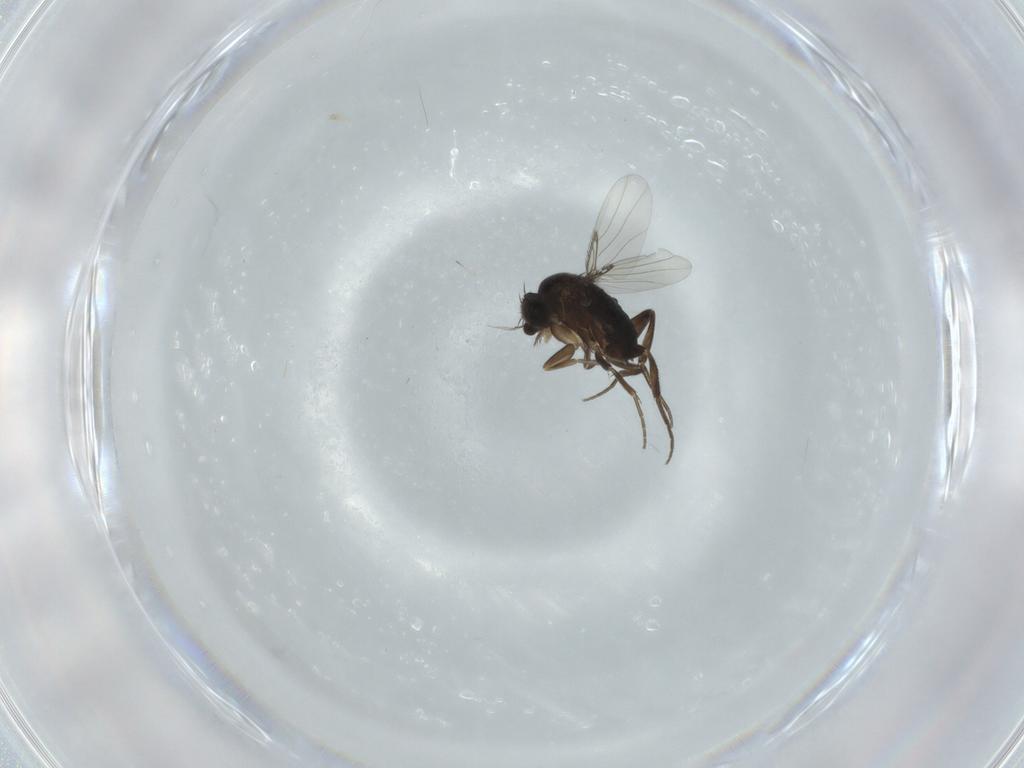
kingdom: Animalia
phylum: Arthropoda
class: Insecta
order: Diptera
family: Phoridae
